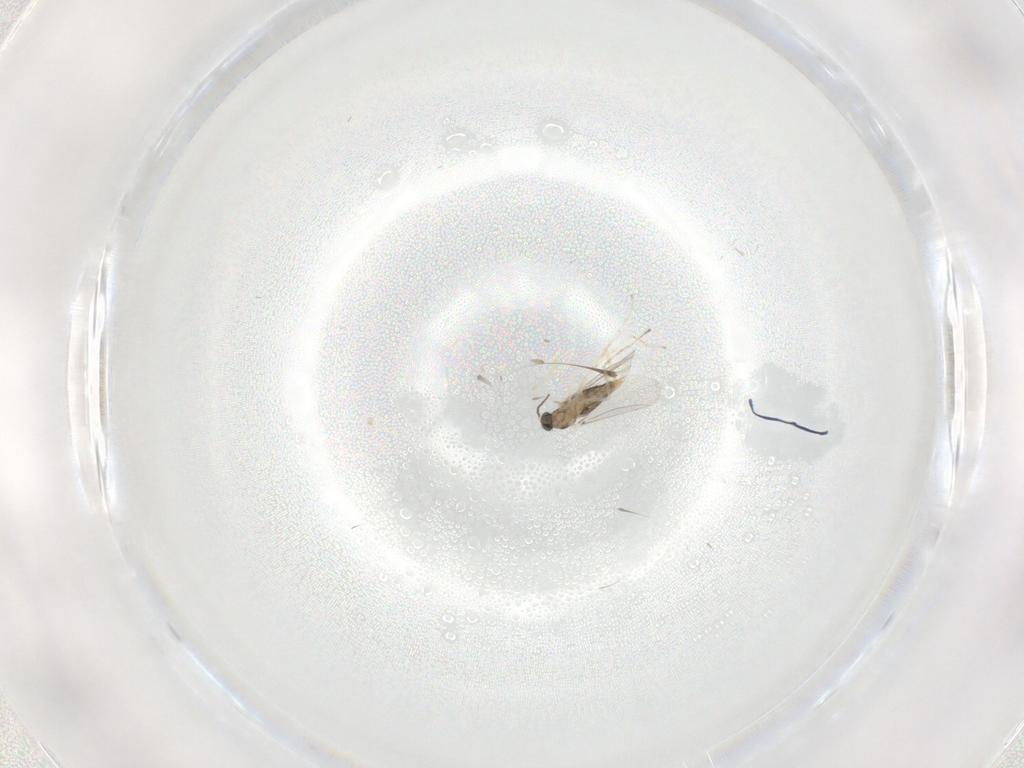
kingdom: Animalia
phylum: Arthropoda
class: Insecta
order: Diptera
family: Cecidomyiidae
